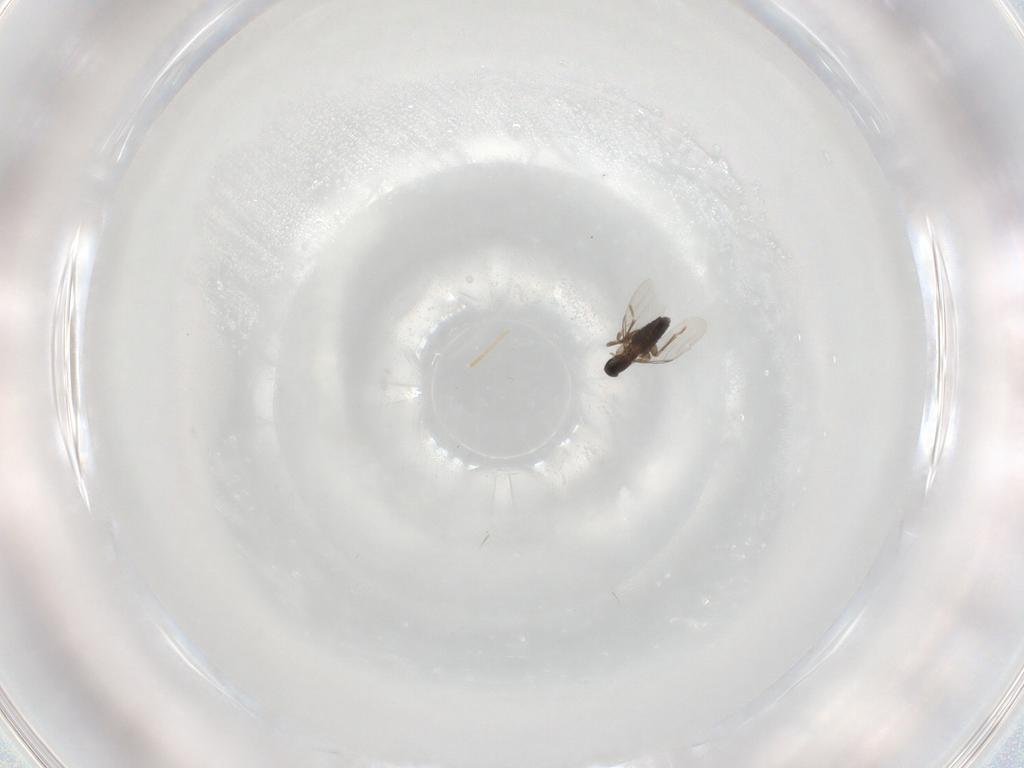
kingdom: Animalia
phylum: Arthropoda
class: Insecta
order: Diptera
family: Phoridae
